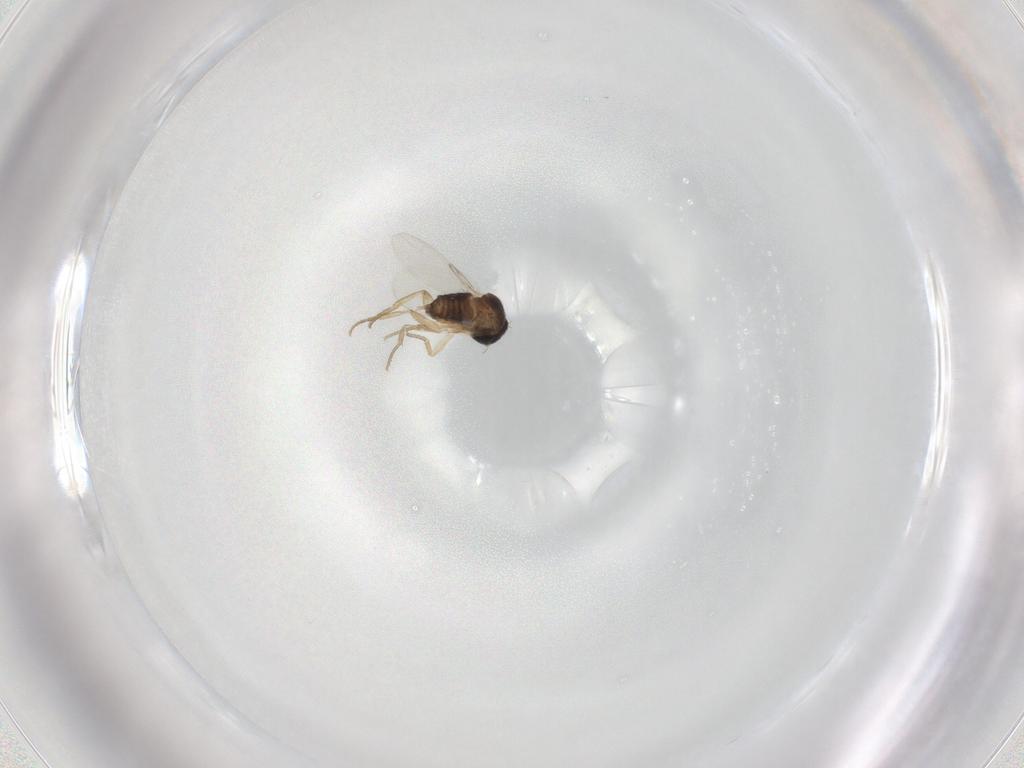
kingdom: Animalia
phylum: Arthropoda
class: Insecta
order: Diptera
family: Phoridae
